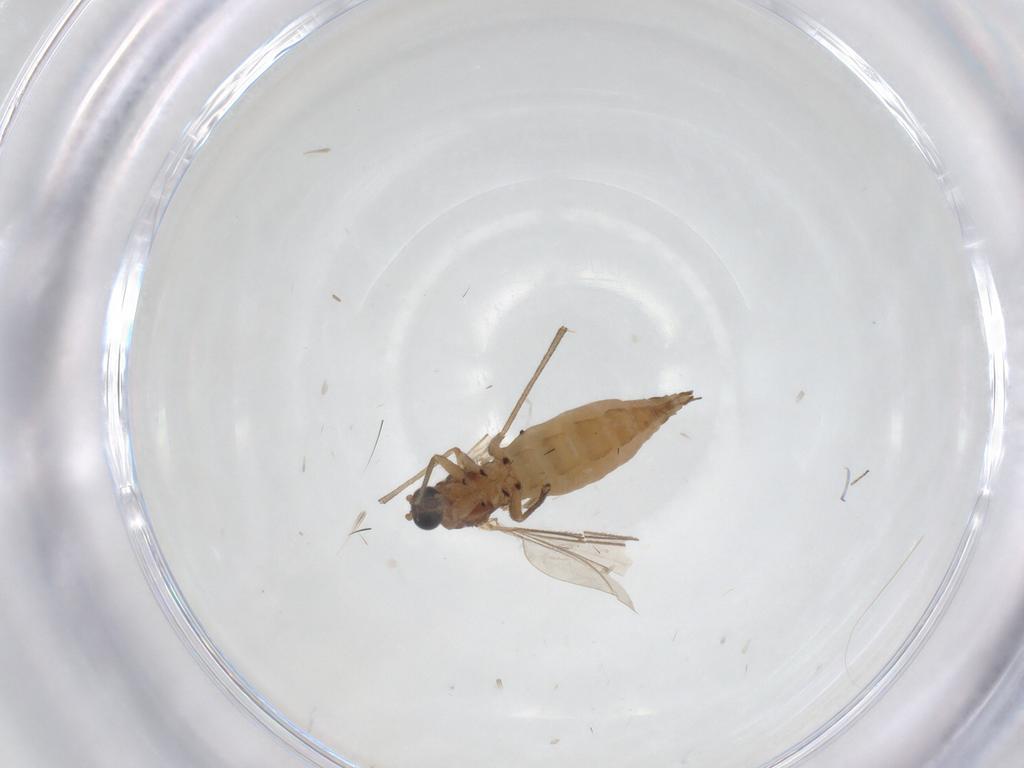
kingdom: Animalia
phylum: Arthropoda
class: Insecta
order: Diptera
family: Sciaridae
